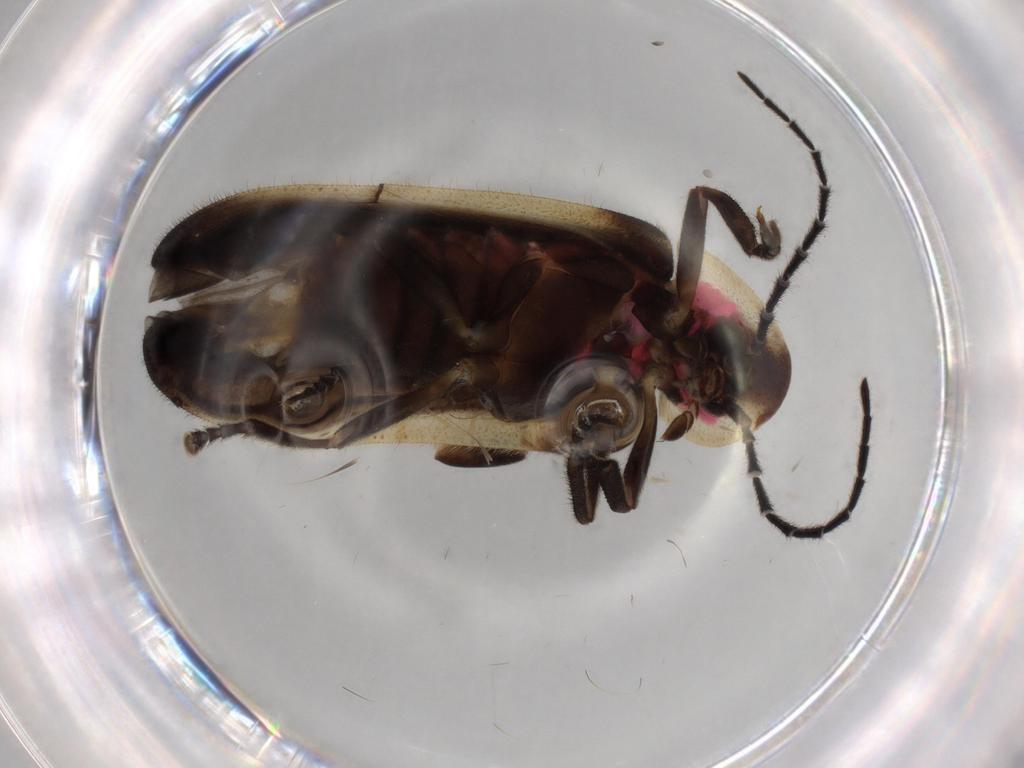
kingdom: Animalia
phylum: Arthropoda
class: Insecta
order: Coleoptera
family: Lampyridae
